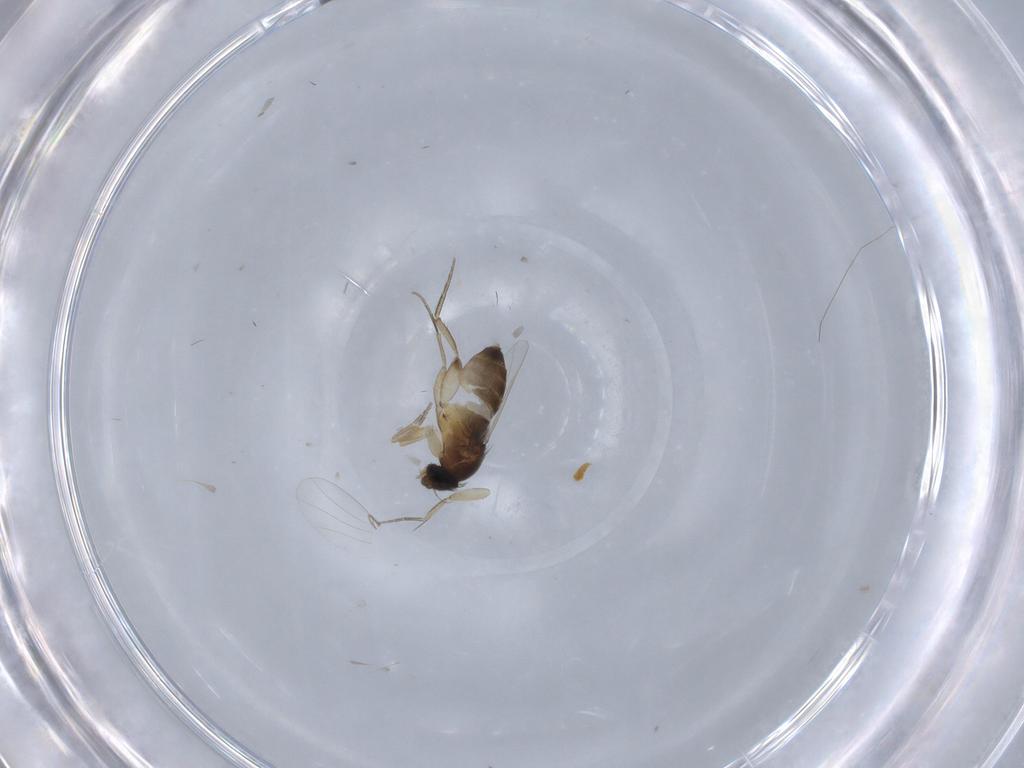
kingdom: Animalia
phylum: Arthropoda
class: Insecta
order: Diptera
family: Phoridae
